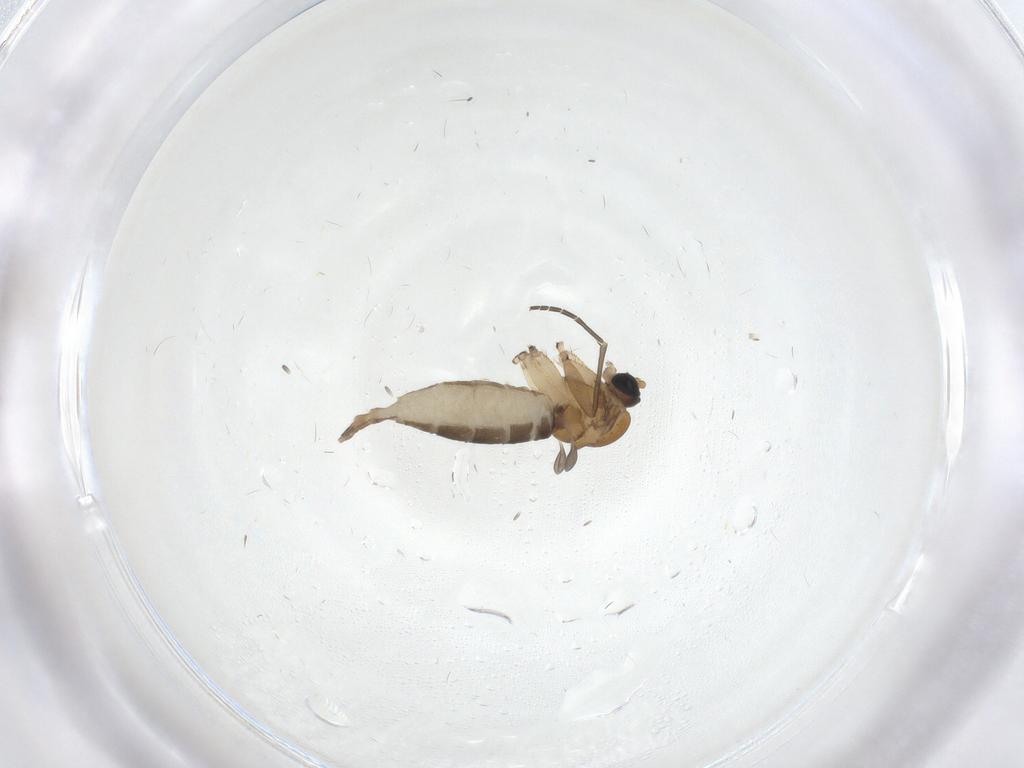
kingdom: Animalia
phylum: Arthropoda
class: Insecta
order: Diptera
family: Sciaridae
